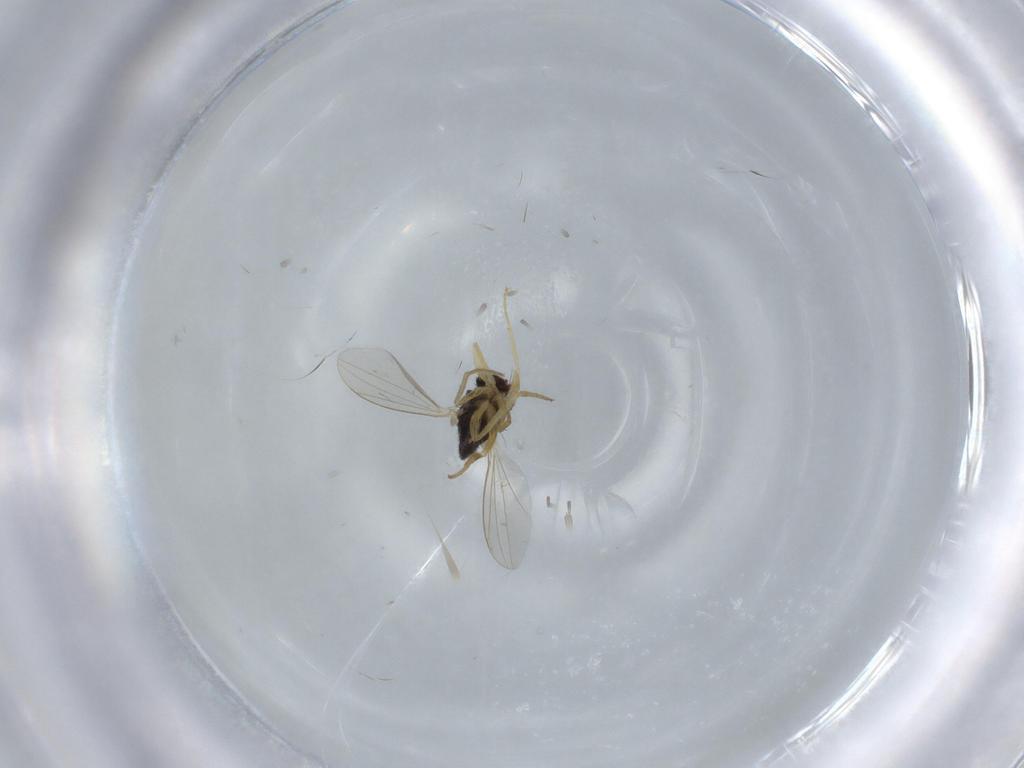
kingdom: Animalia
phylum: Arthropoda
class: Insecta
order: Diptera
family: Dolichopodidae
